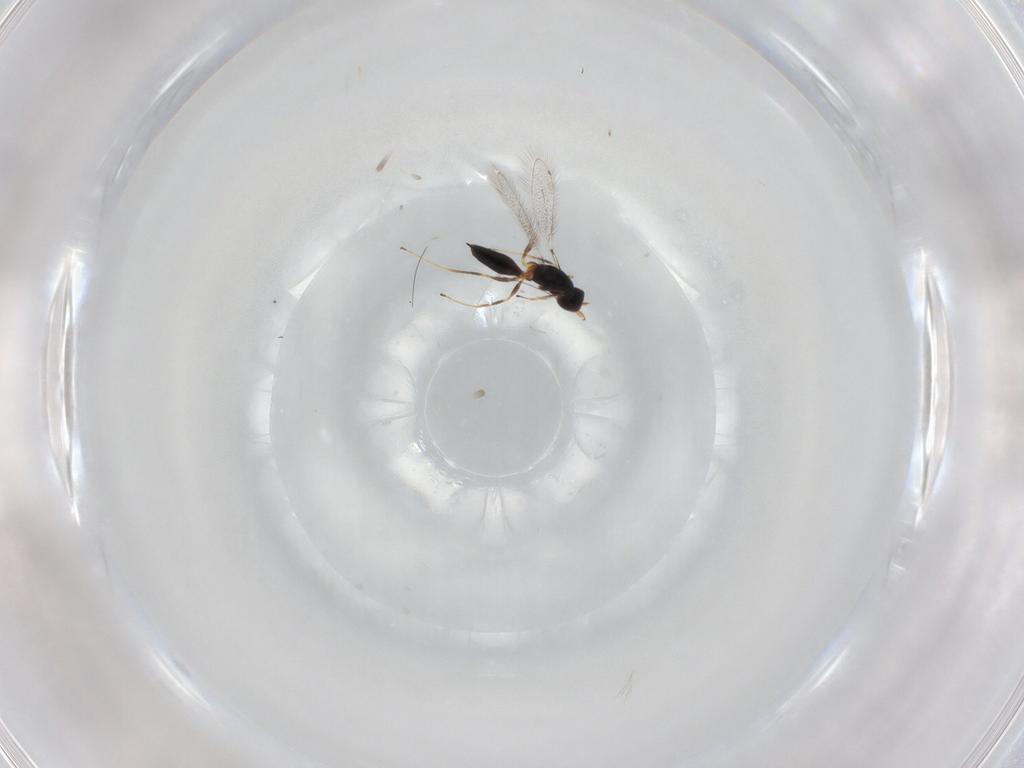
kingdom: Animalia
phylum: Arthropoda
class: Insecta
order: Hymenoptera
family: Mymaridae
